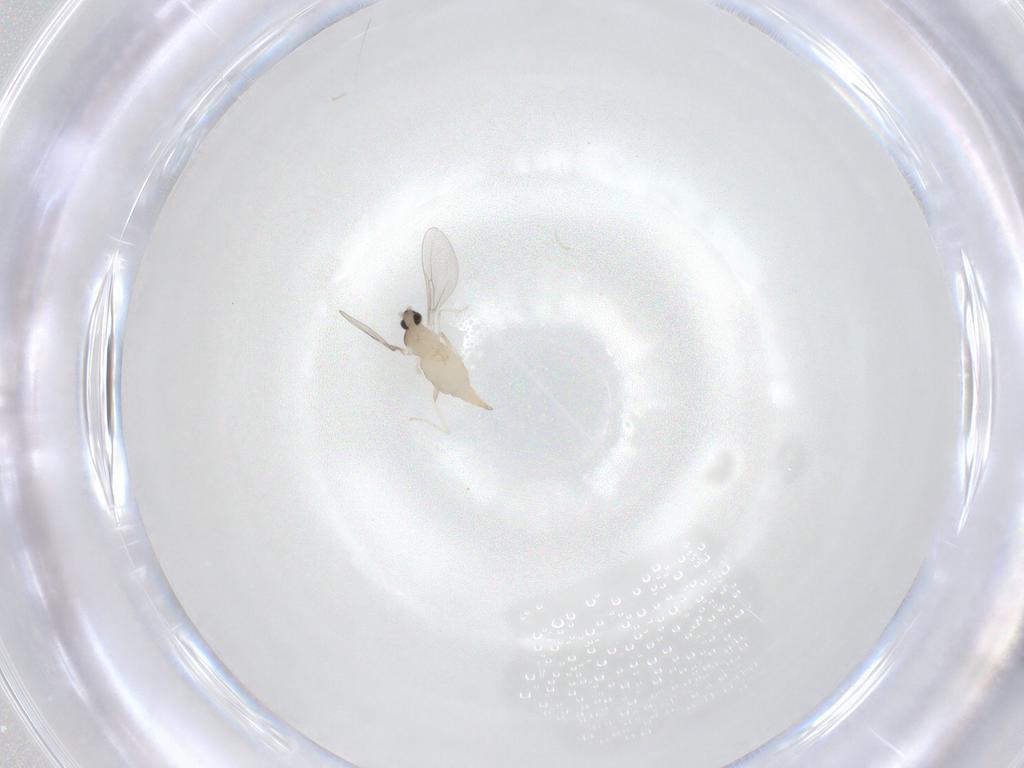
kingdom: Animalia
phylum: Arthropoda
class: Insecta
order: Diptera
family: Cecidomyiidae
